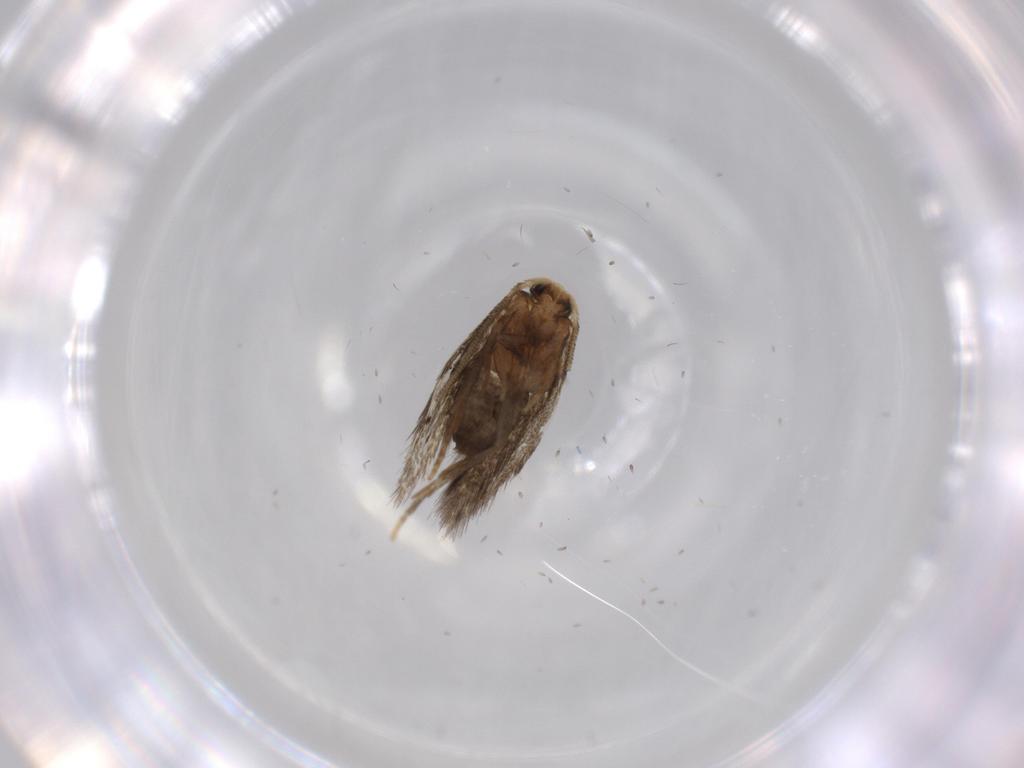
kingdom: Animalia
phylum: Arthropoda
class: Insecta
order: Lepidoptera
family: Nepticulidae
